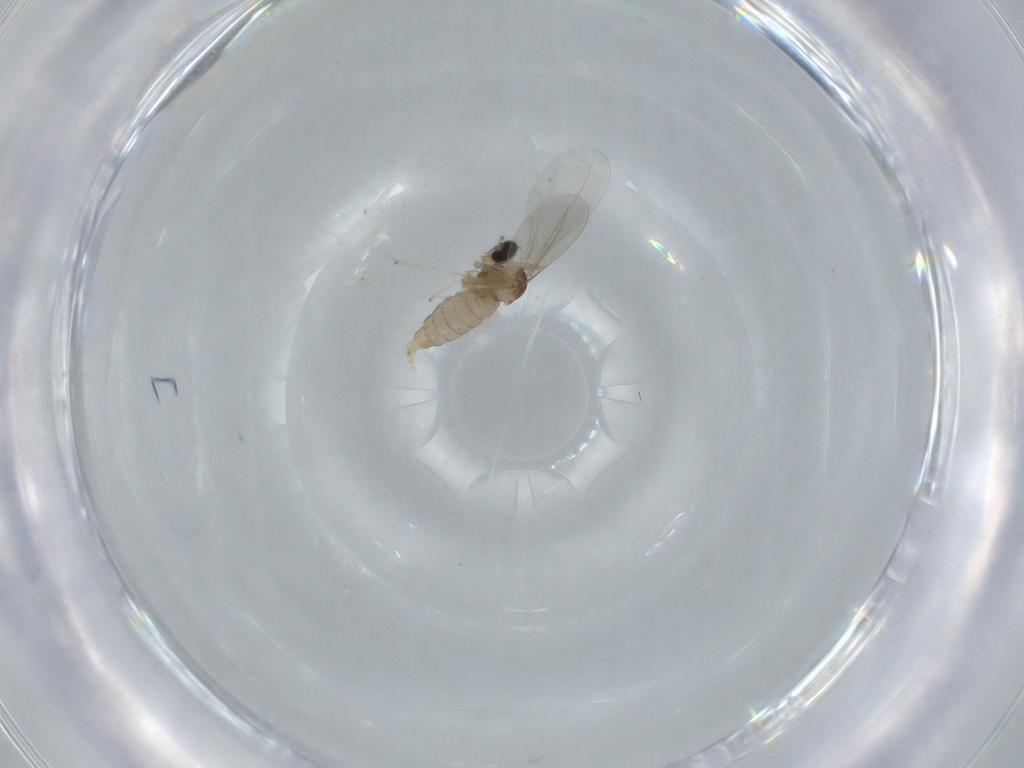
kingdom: Animalia
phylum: Arthropoda
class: Insecta
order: Diptera
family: Cecidomyiidae
